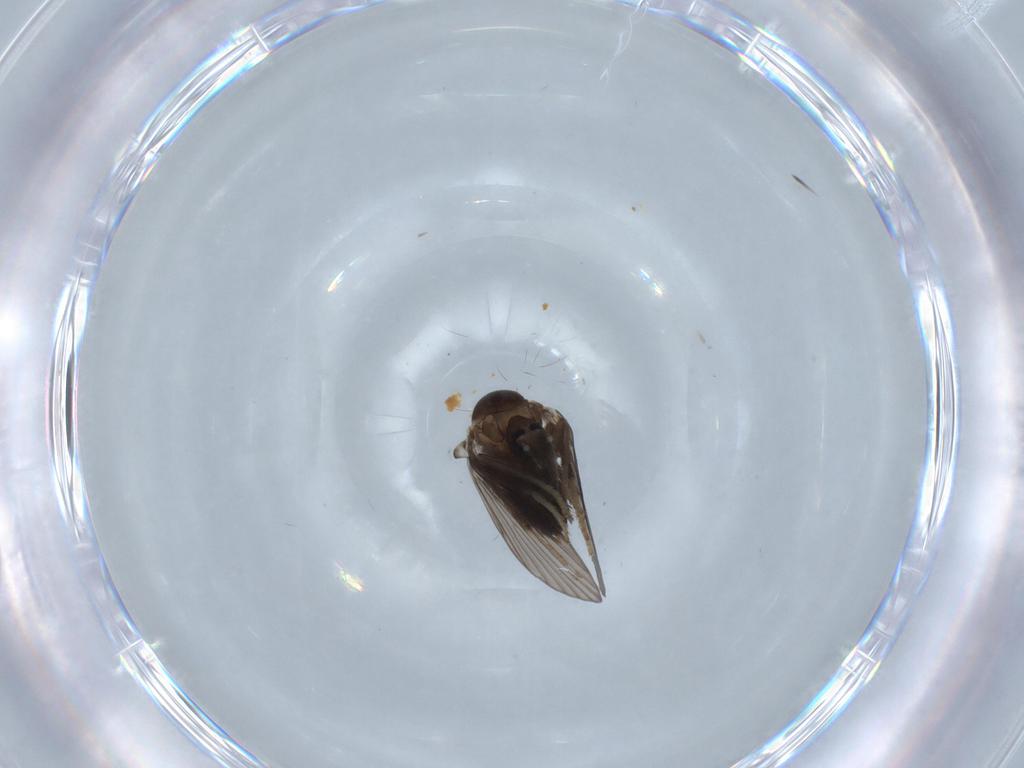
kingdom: Animalia
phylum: Arthropoda
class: Insecta
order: Diptera
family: Psychodidae
